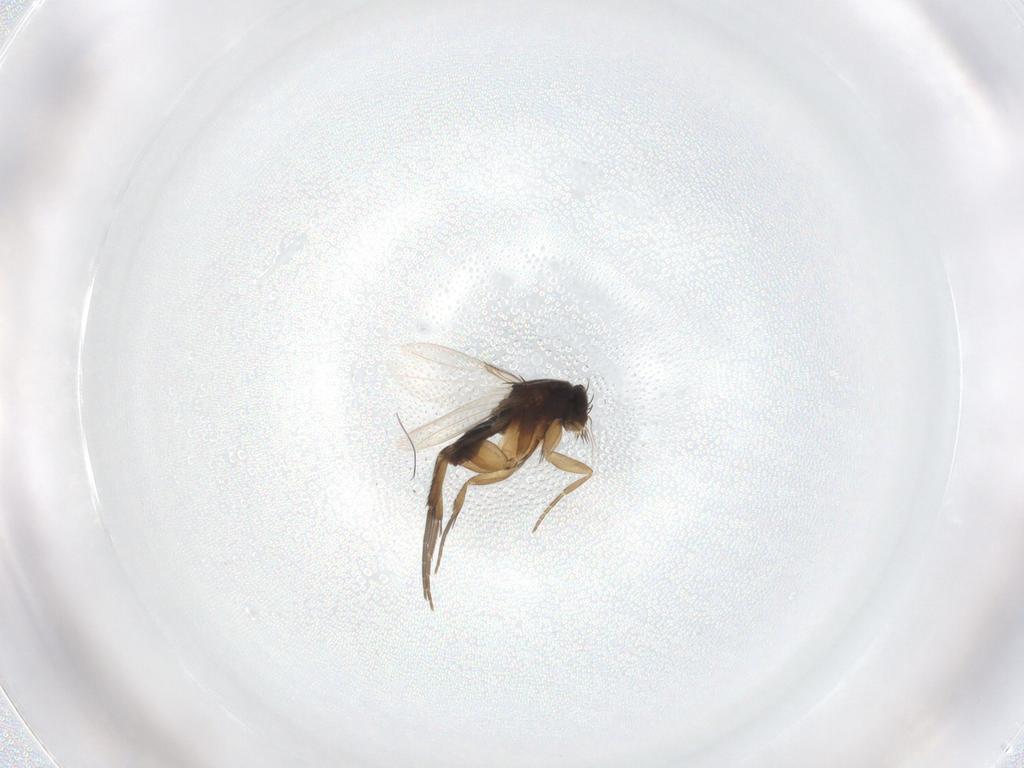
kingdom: Animalia
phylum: Arthropoda
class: Insecta
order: Diptera
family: Phoridae
